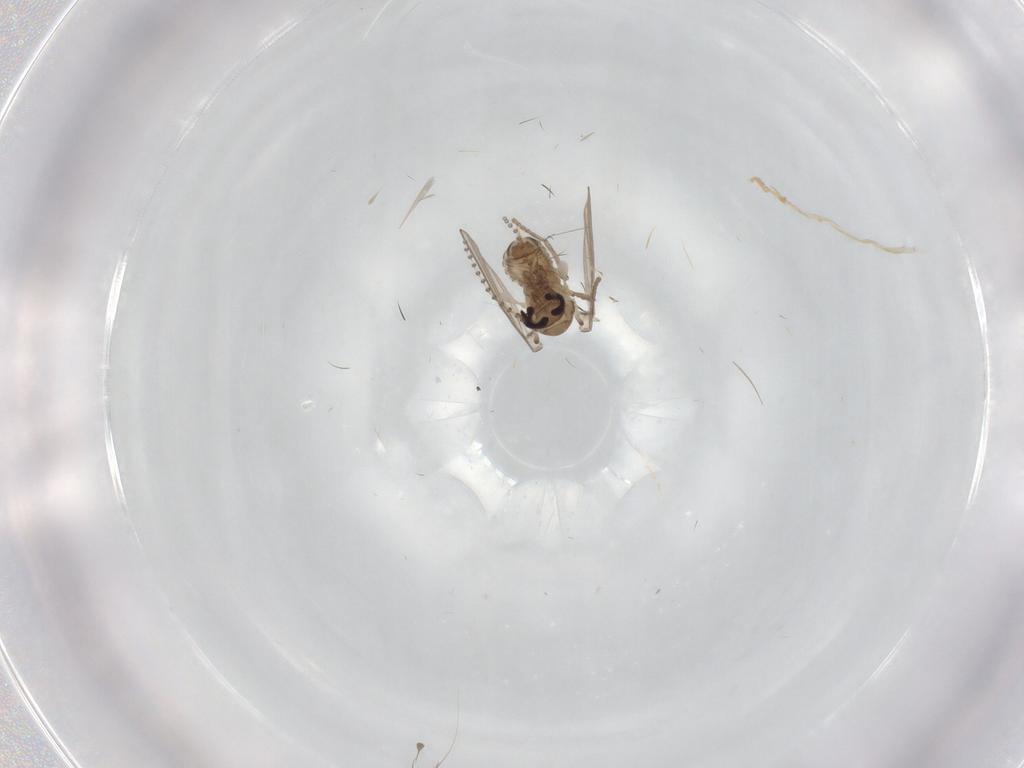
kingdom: Animalia
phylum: Arthropoda
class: Insecta
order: Diptera
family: Cecidomyiidae
